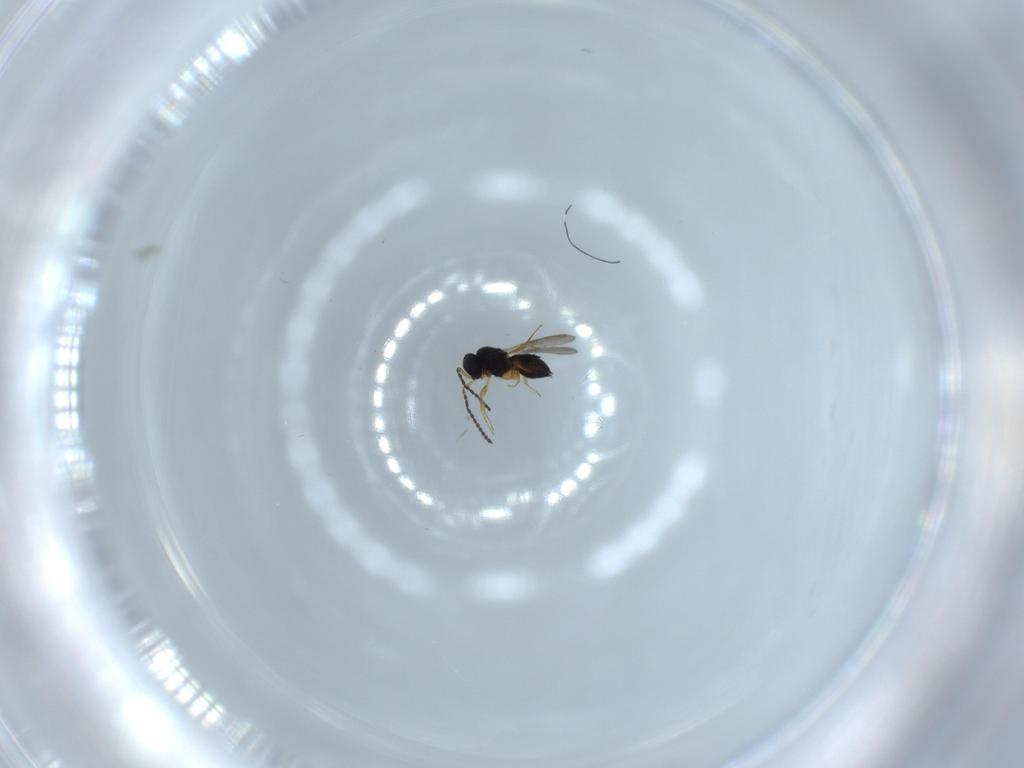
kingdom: Animalia
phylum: Arthropoda
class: Insecta
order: Hymenoptera
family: Scelionidae
